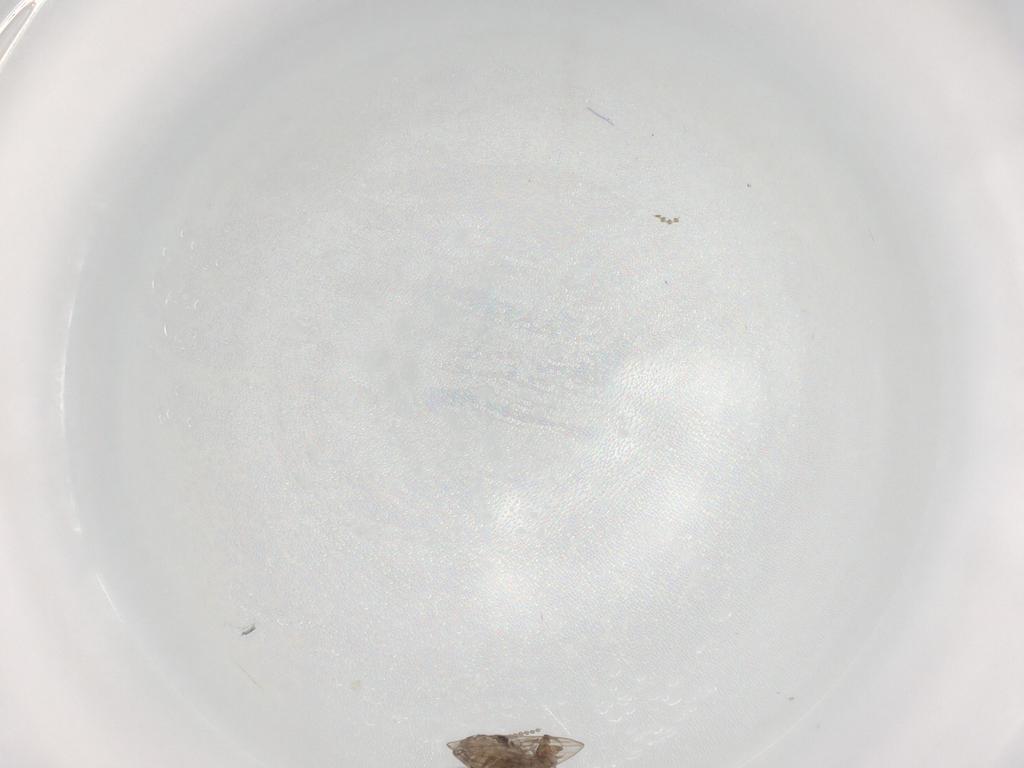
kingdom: Animalia
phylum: Arthropoda
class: Insecta
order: Diptera
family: Psychodidae
